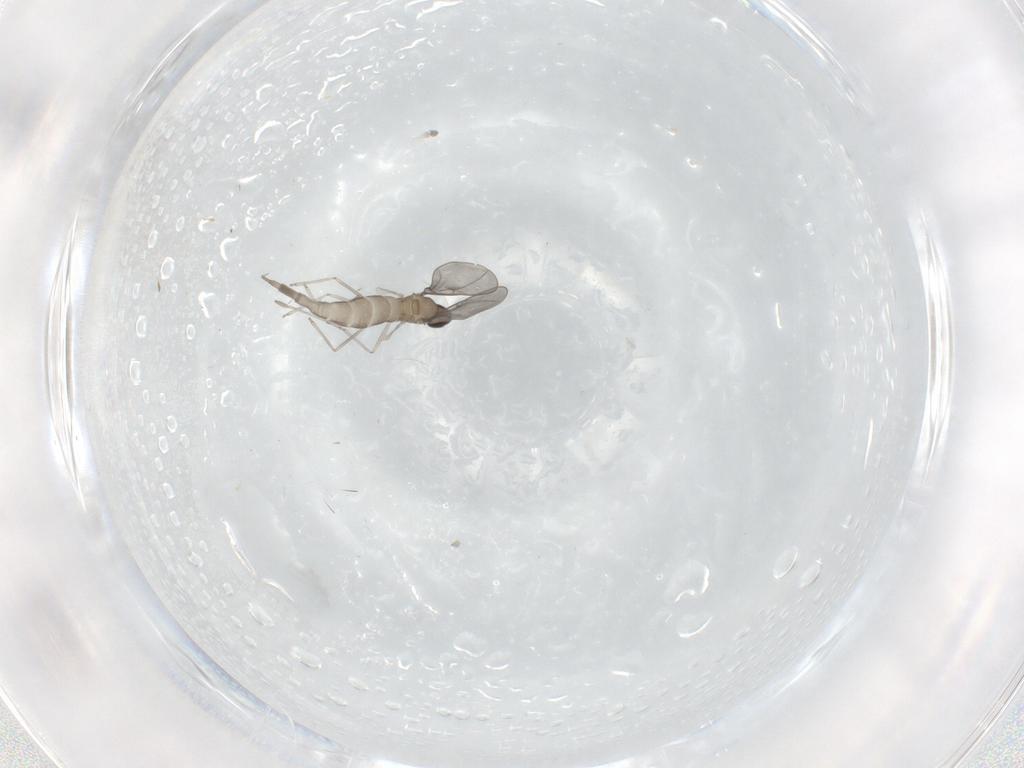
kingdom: Animalia
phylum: Arthropoda
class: Insecta
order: Diptera
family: Cecidomyiidae
